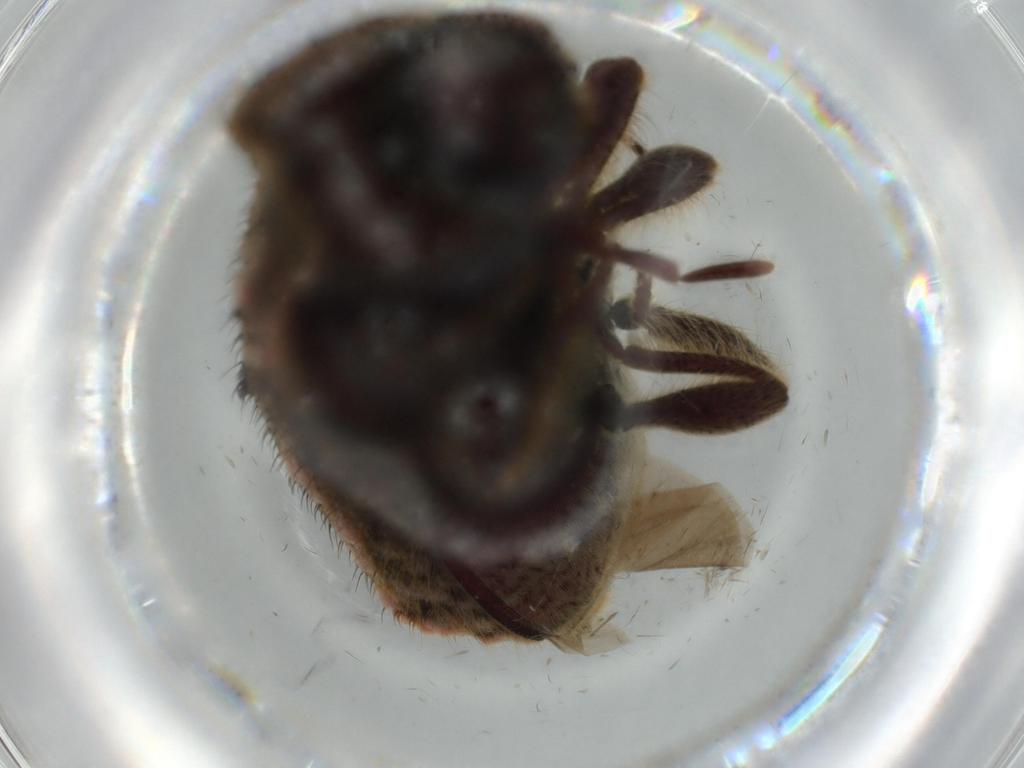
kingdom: Animalia
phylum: Arthropoda
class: Insecta
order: Coleoptera
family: Ptinidae
